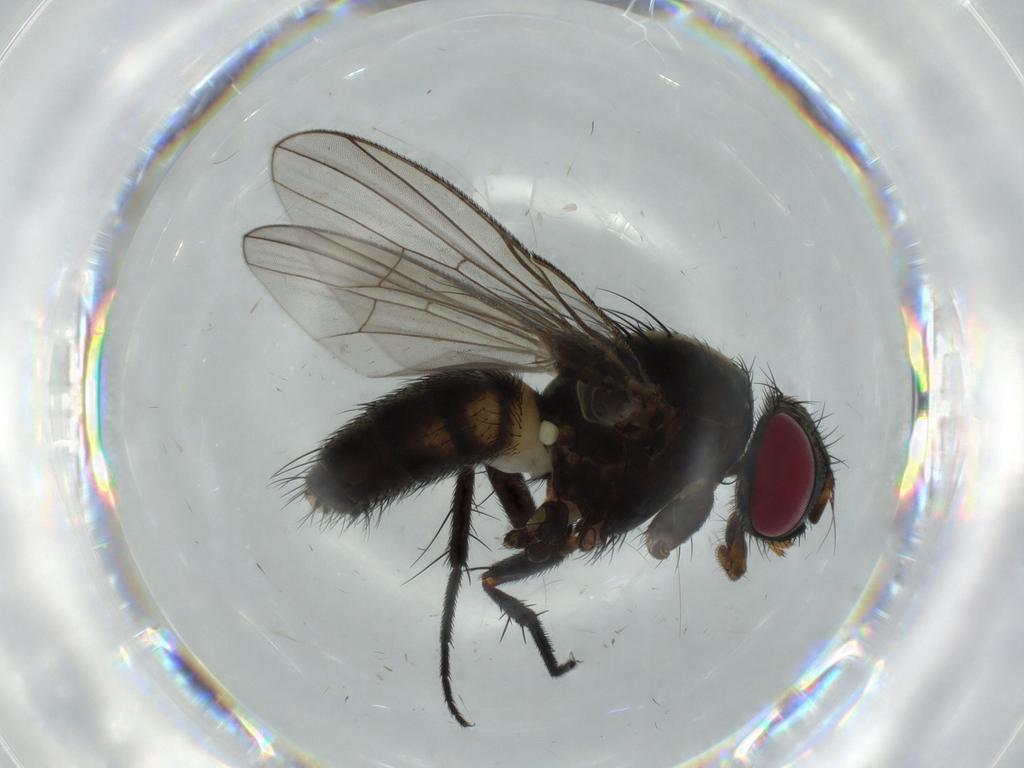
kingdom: Animalia
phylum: Arthropoda
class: Insecta
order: Diptera
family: Fannia
